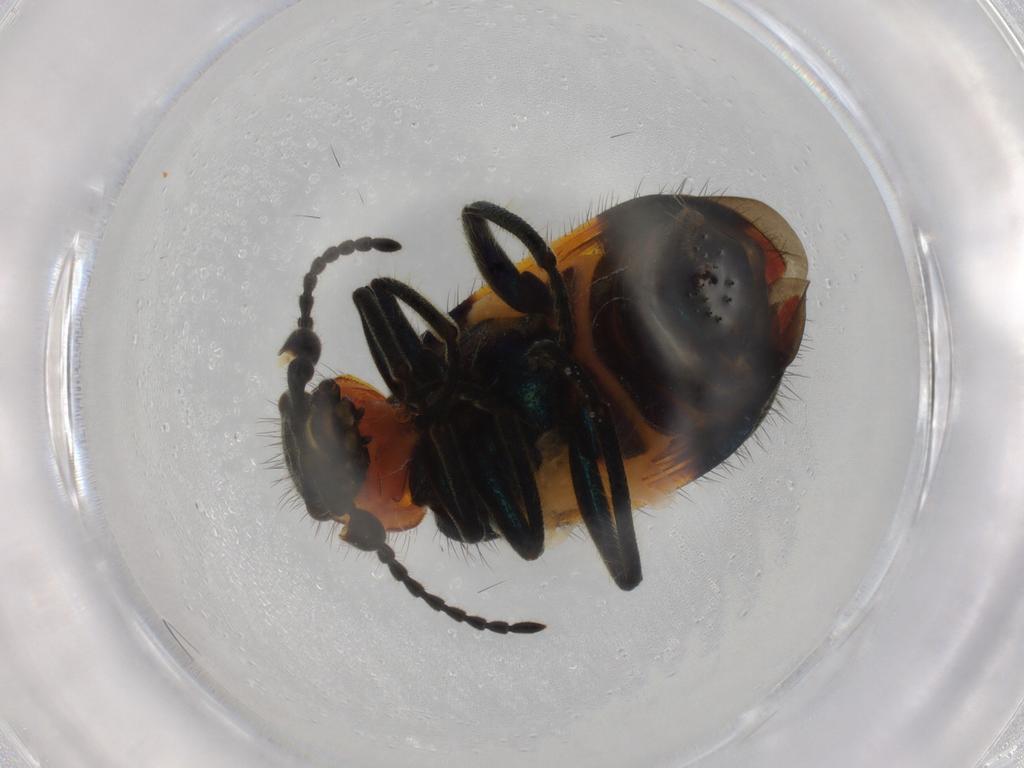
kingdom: Animalia
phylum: Arthropoda
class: Insecta
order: Coleoptera
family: Melyridae
